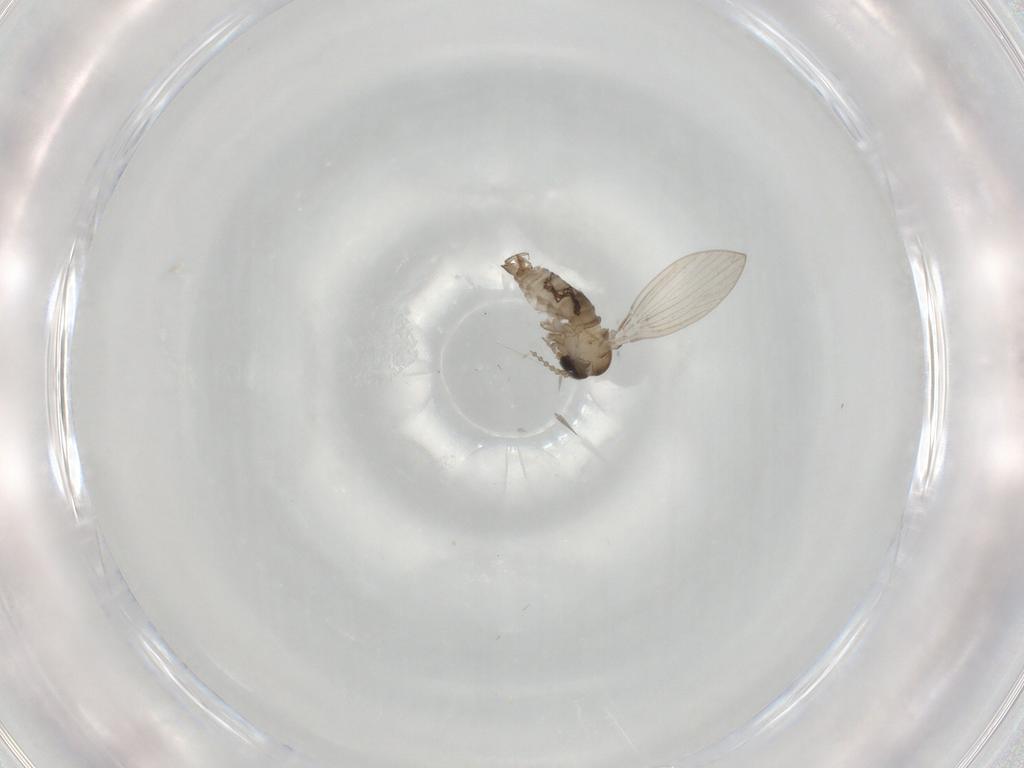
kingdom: Animalia
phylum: Arthropoda
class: Insecta
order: Diptera
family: Psychodidae
